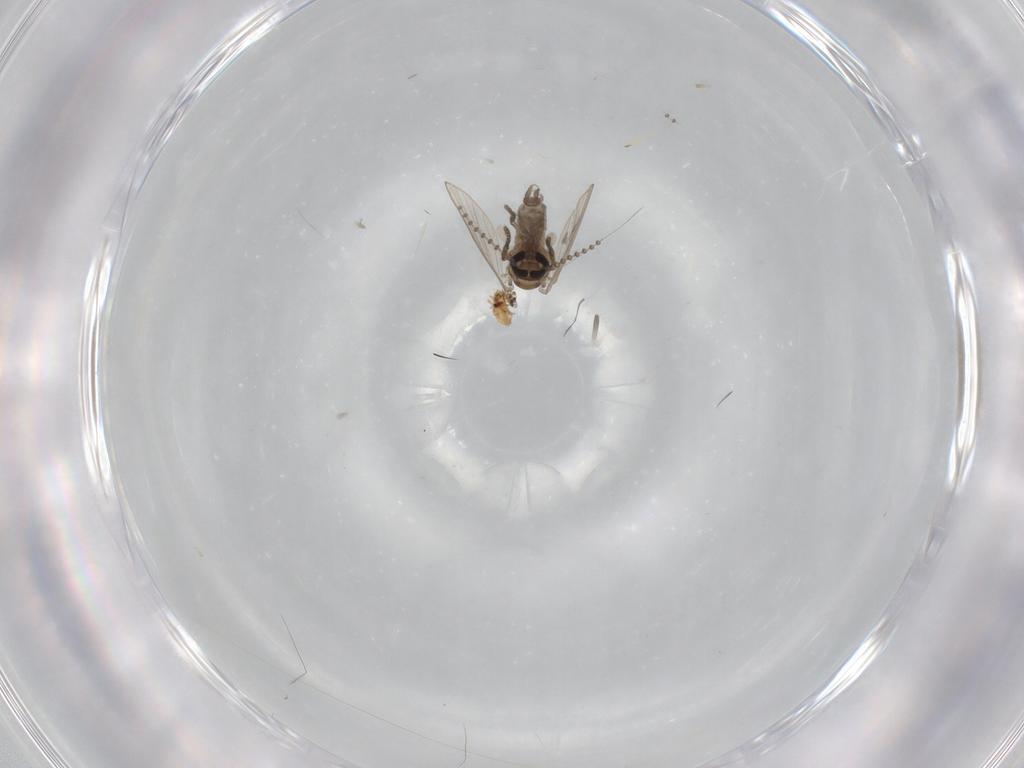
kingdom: Animalia
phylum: Arthropoda
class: Insecta
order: Diptera
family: Psychodidae
